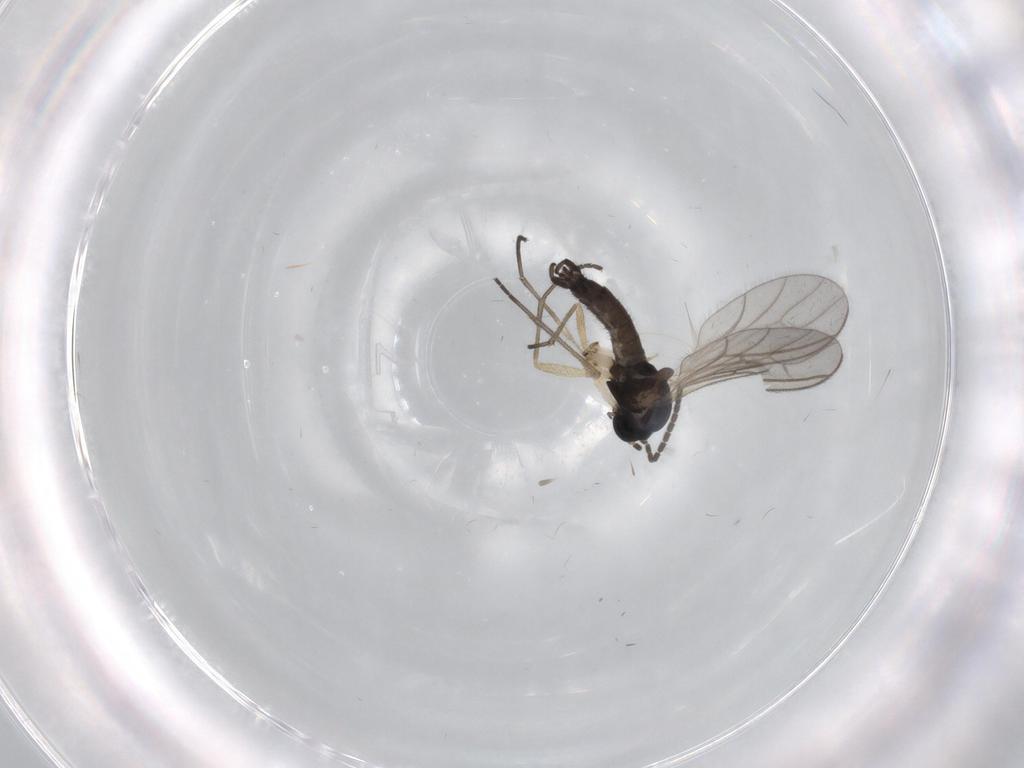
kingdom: Animalia
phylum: Arthropoda
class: Insecta
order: Diptera
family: Sciaridae
